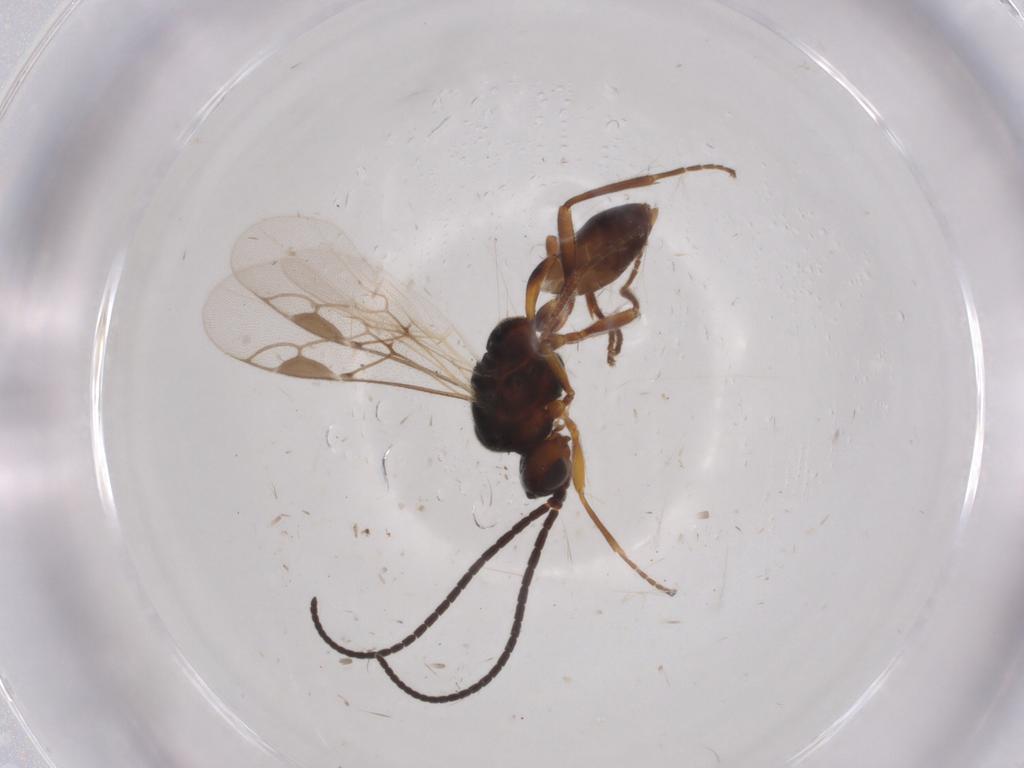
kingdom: Animalia
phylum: Arthropoda
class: Insecta
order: Hymenoptera
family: Braconidae
